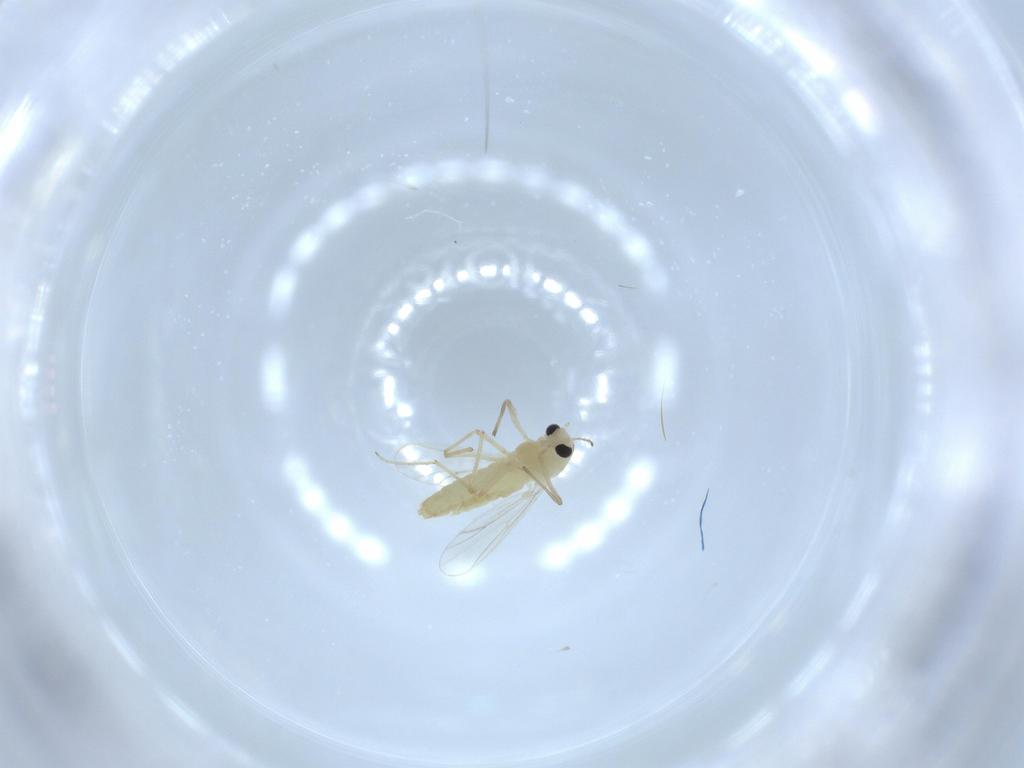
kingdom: Animalia
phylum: Arthropoda
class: Insecta
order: Diptera
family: Chironomidae
